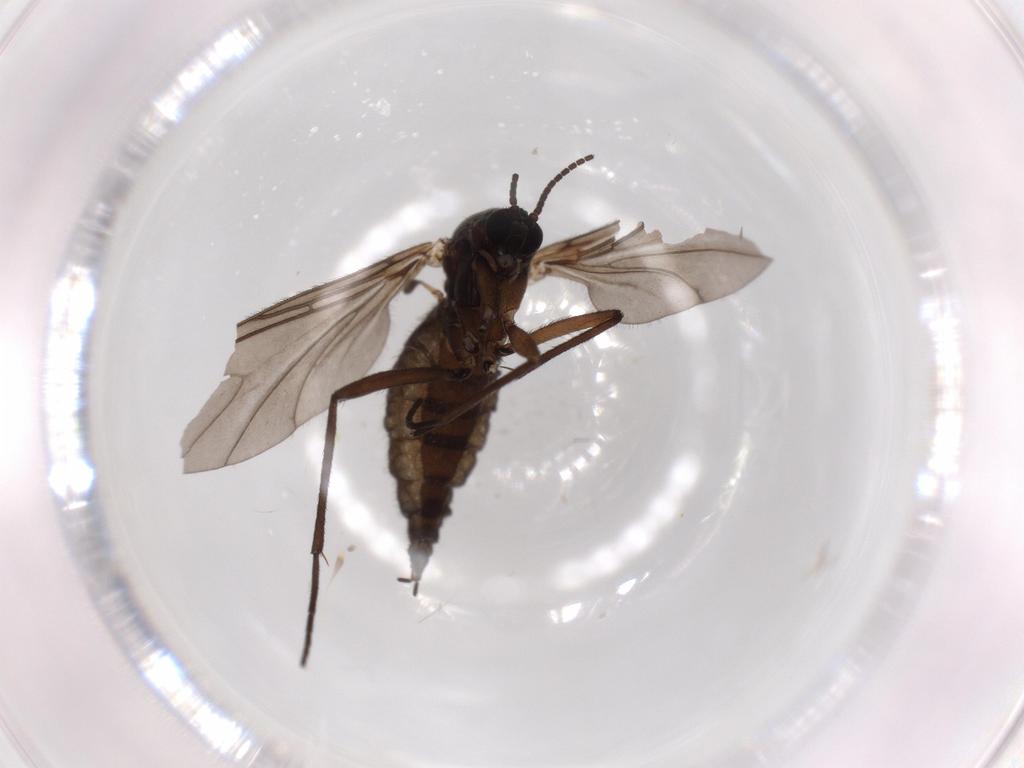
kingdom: Animalia
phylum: Arthropoda
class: Insecta
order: Diptera
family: Sciaridae
